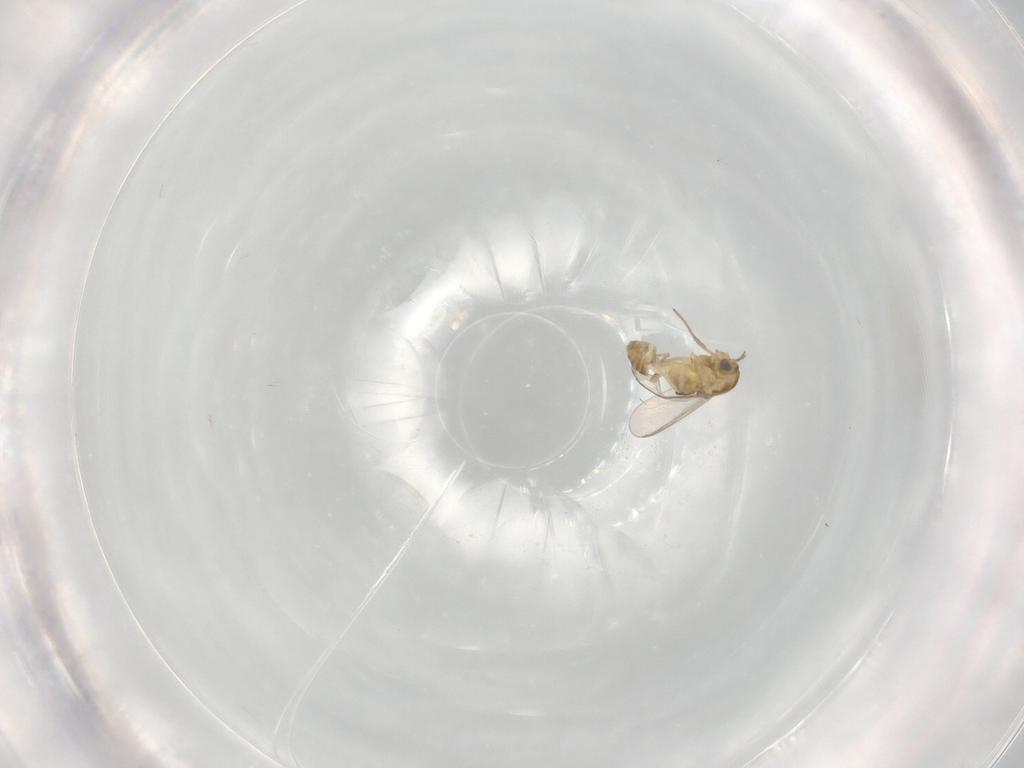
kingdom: Animalia
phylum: Arthropoda
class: Insecta
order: Diptera
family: Chironomidae
